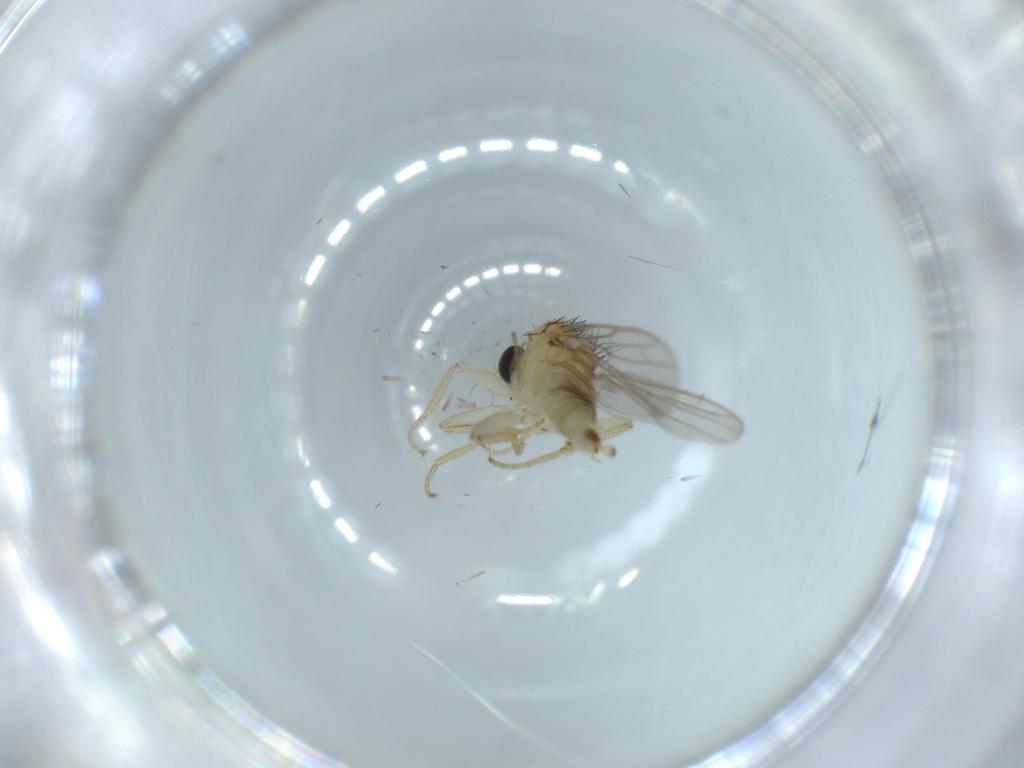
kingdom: Animalia
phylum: Arthropoda
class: Insecta
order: Diptera
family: Hybotidae
